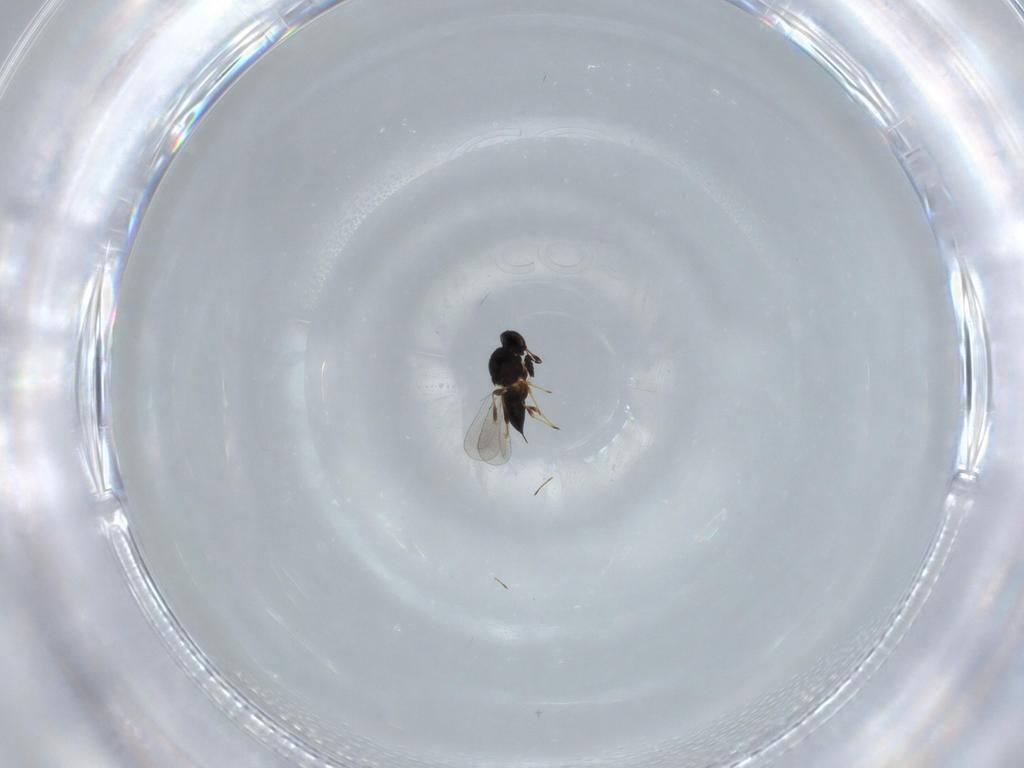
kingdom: Animalia
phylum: Arthropoda
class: Insecta
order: Hymenoptera
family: Platygastridae
